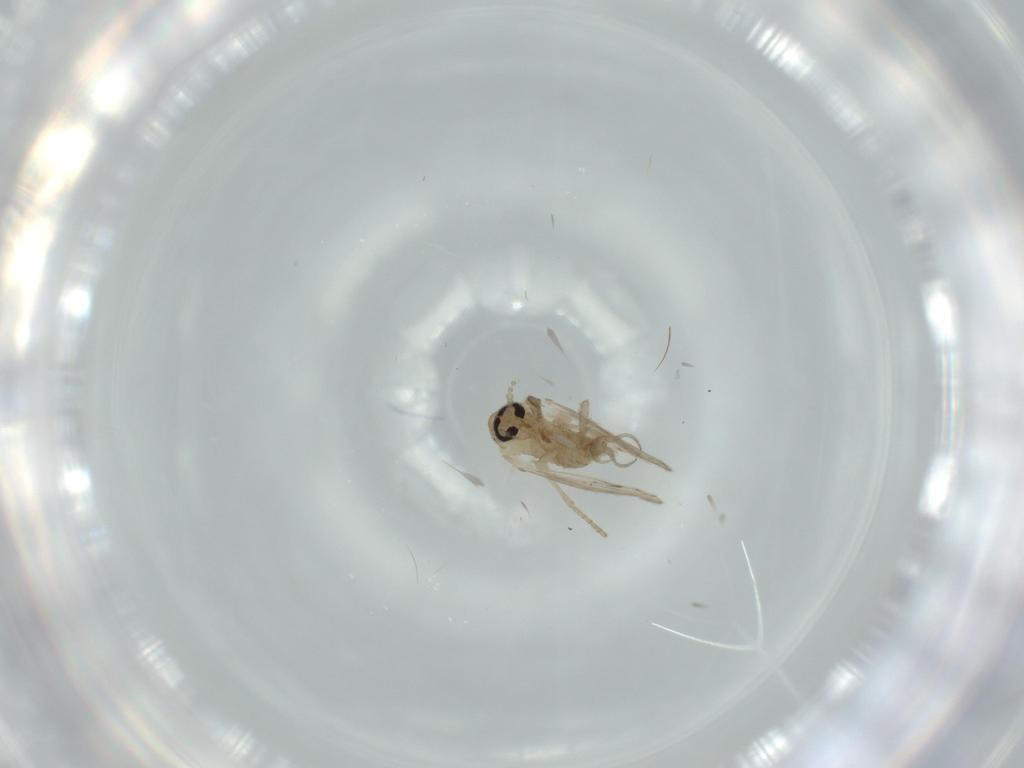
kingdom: Animalia
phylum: Arthropoda
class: Insecta
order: Diptera
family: Psychodidae
